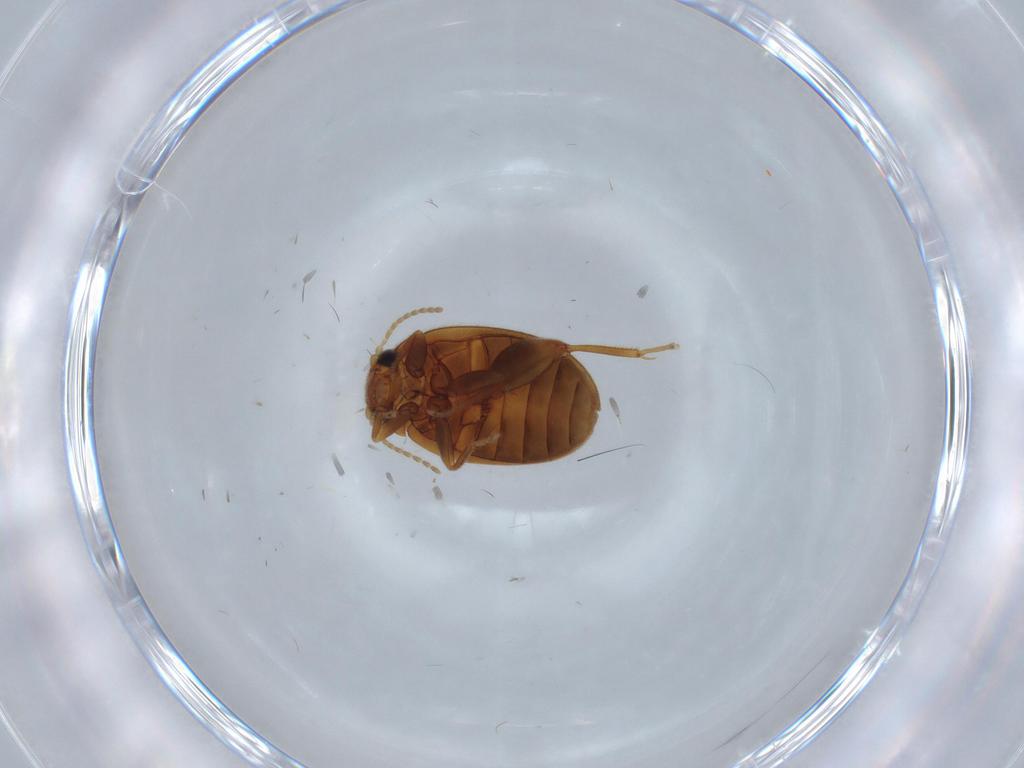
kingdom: Animalia
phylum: Arthropoda
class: Insecta
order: Coleoptera
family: Scirtidae
